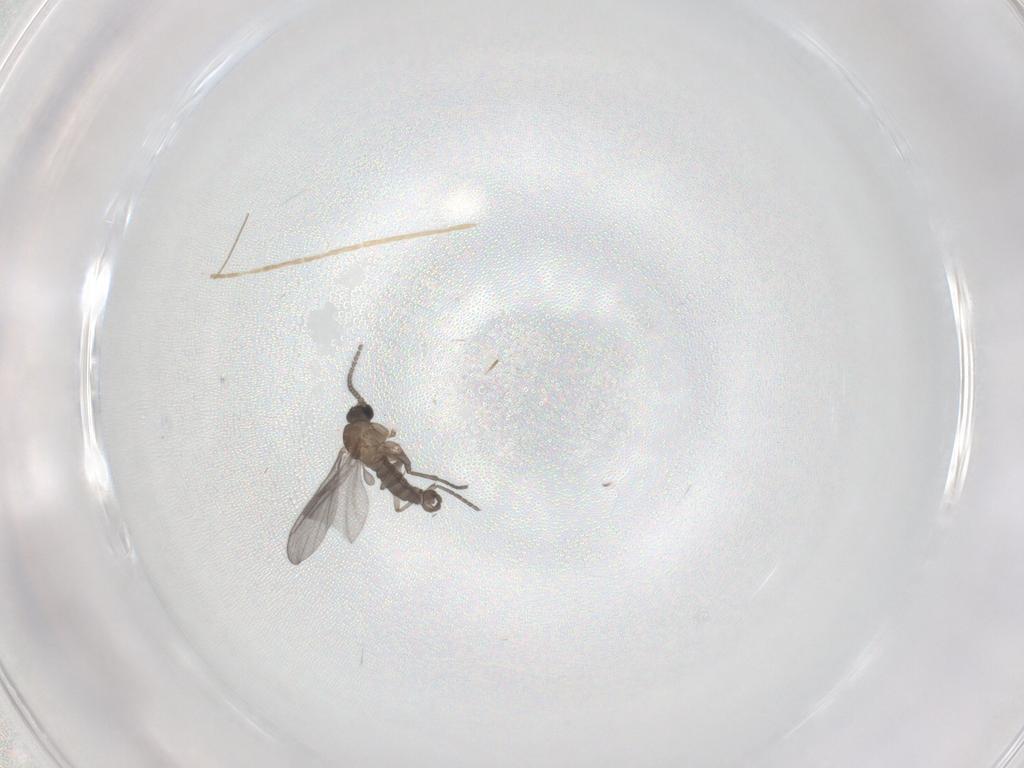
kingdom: Animalia
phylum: Arthropoda
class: Insecta
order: Diptera
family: Chironomidae
